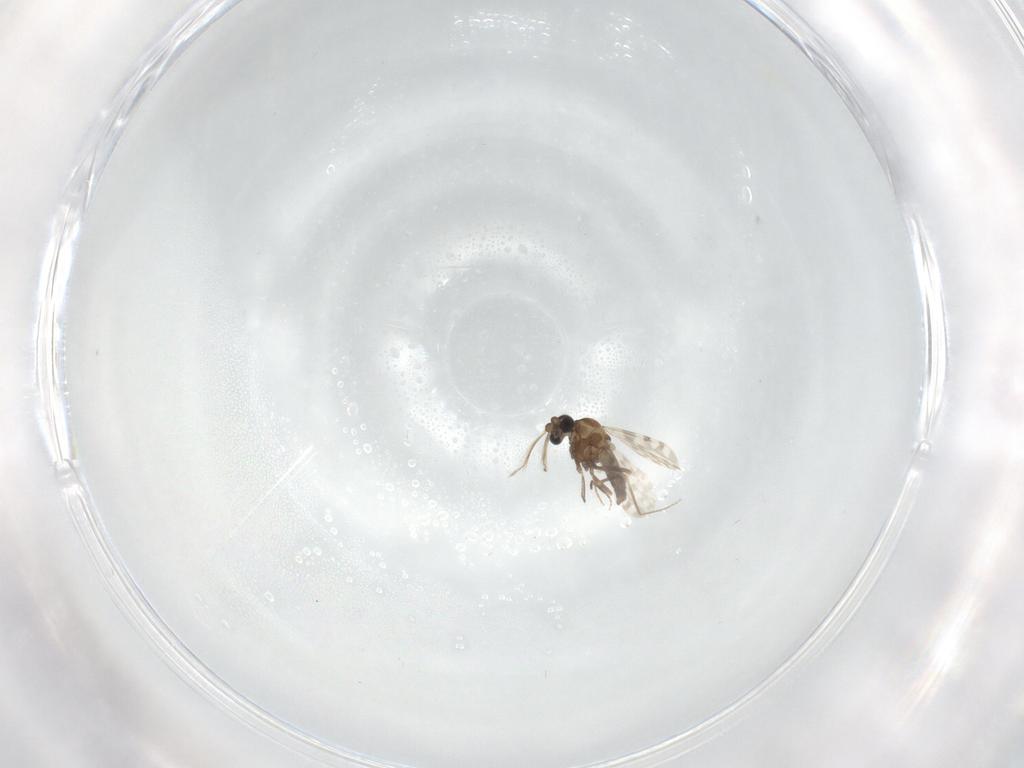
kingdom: Animalia
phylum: Arthropoda
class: Insecta
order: Diptera
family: Ceratopogonidae
